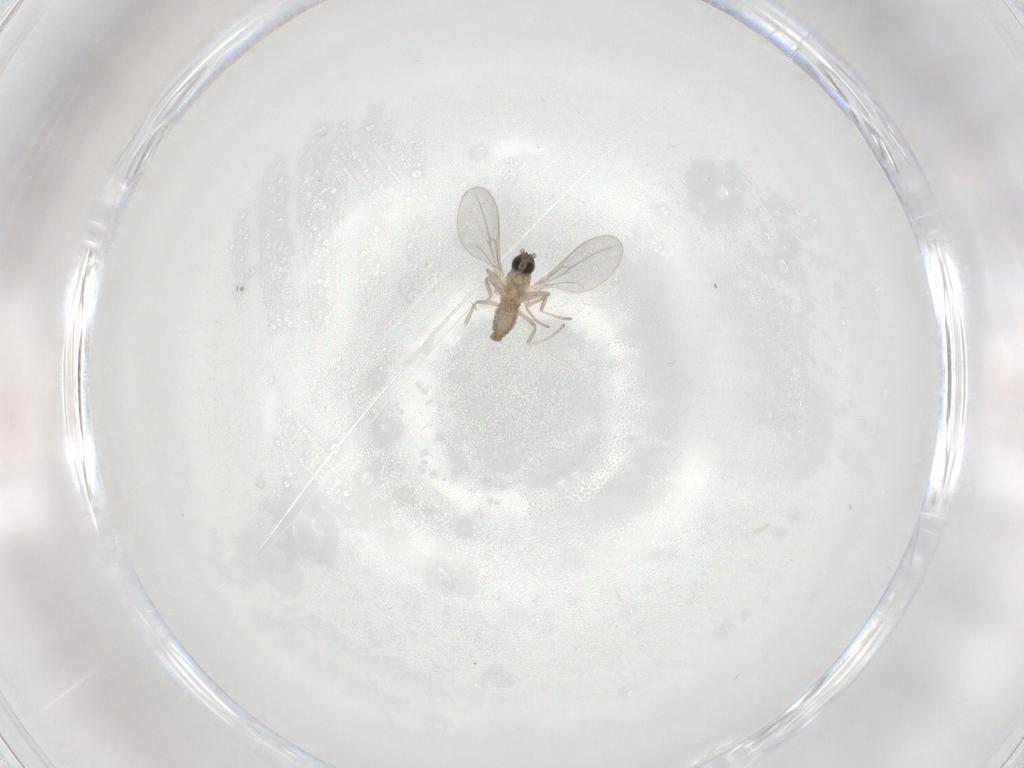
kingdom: Animalia
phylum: Arthropoda
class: Insecta
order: Diptera
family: Cecidomyiidae
